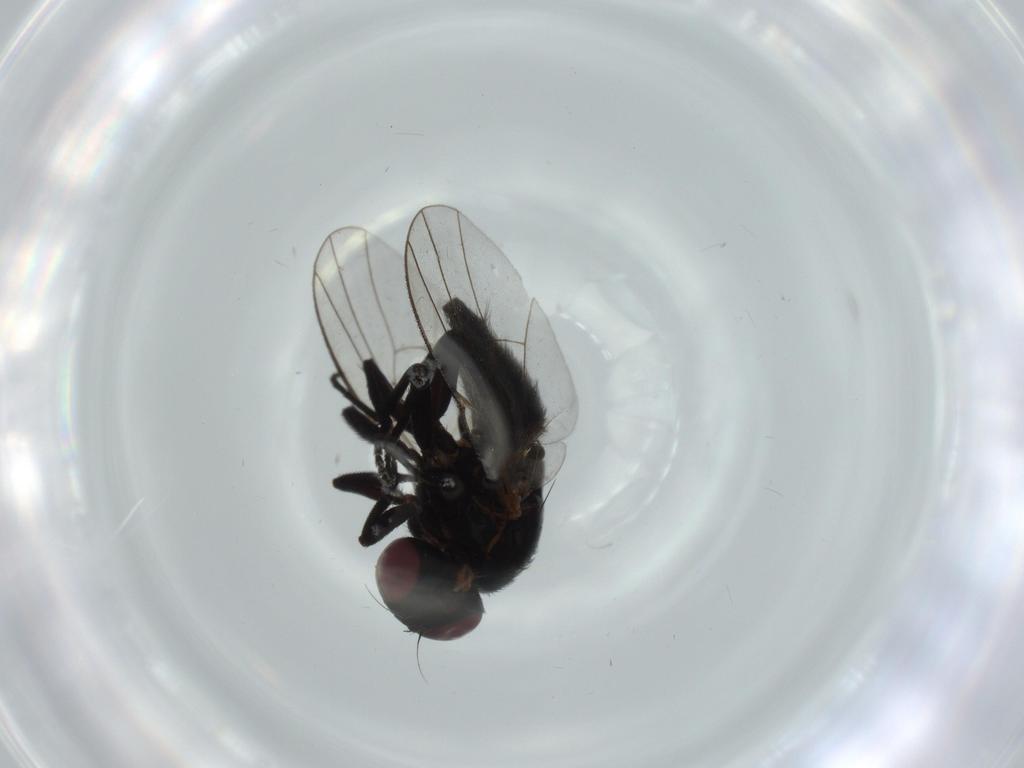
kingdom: Animalia
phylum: Arthropoda
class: Insecta
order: Diptera
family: Agromyzidae
